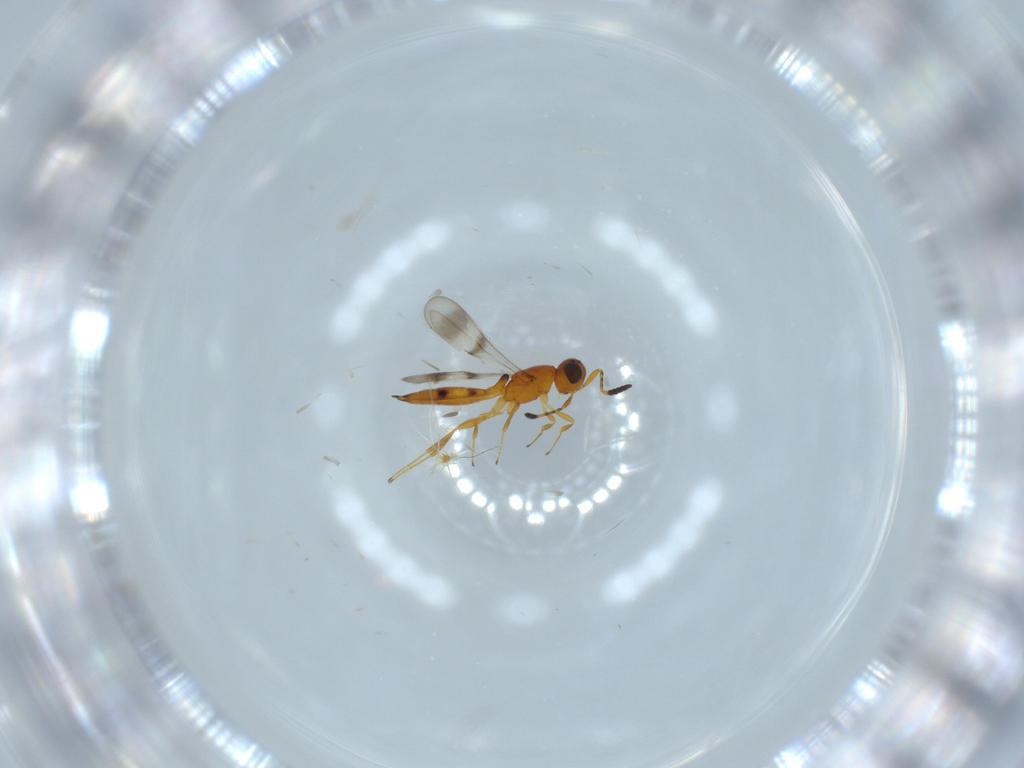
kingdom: Animalia
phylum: Arthropoda
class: Insecta
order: Hymenoptera
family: Scelionidae
